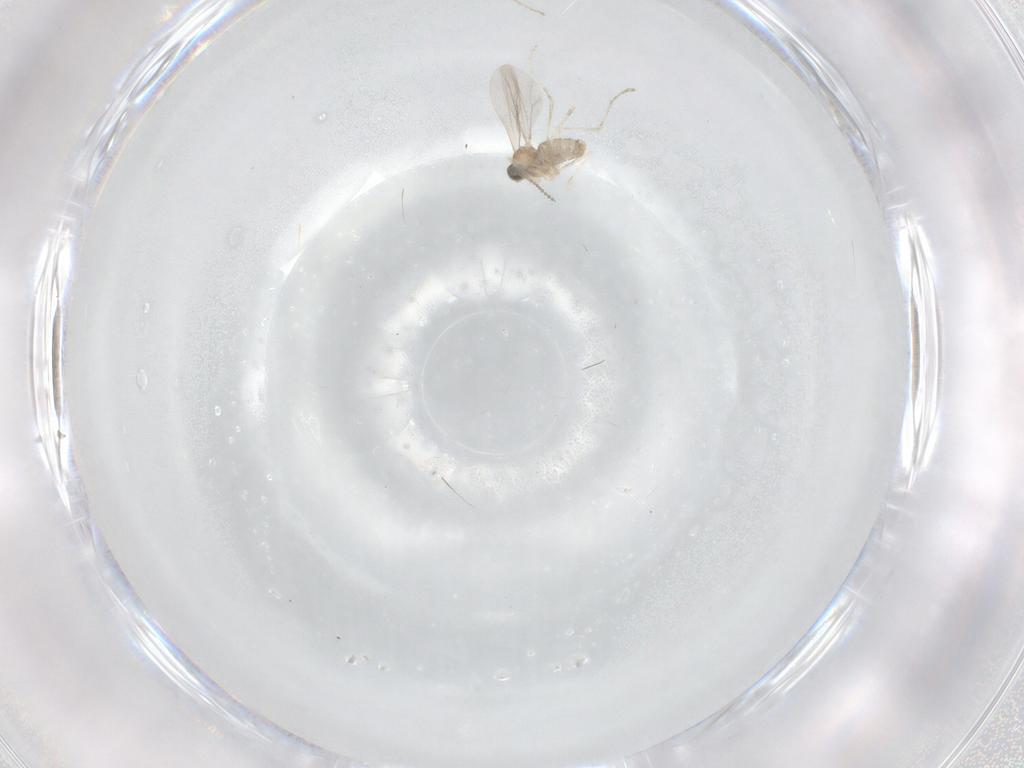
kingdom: Animalia
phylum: Arthropoda
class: Insecta
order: Diptera
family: Cecidomyiidae
